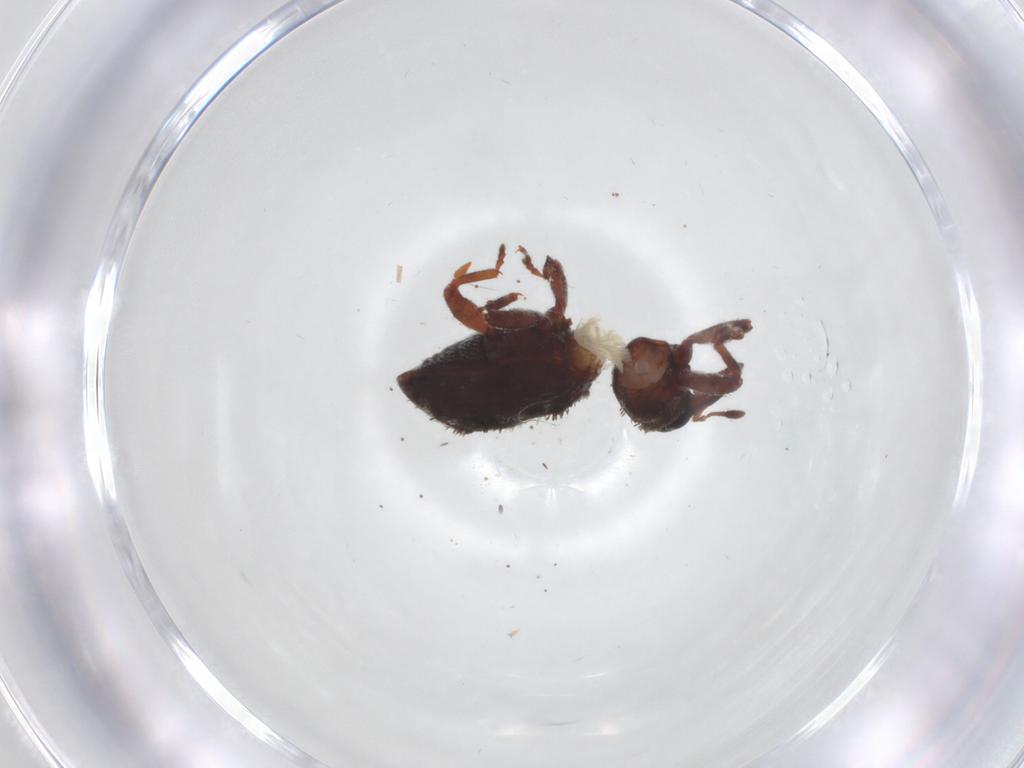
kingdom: Animalia
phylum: Arthropoda
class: Insecta
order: Coleoptera
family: Curculionidae
